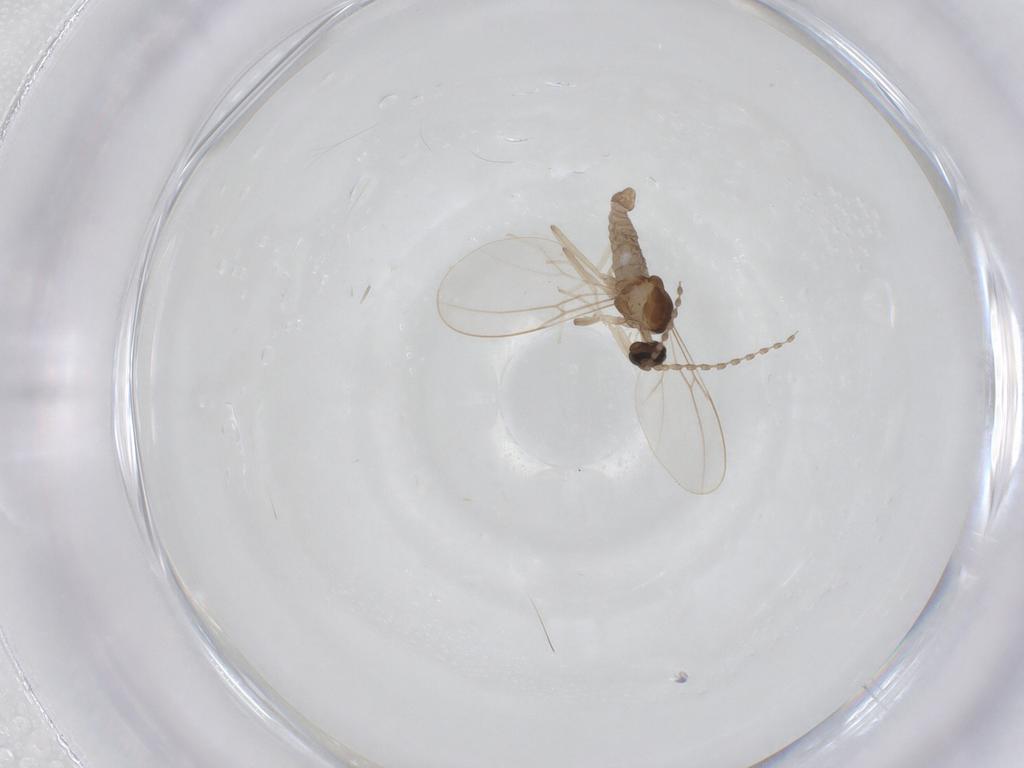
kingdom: Animalia
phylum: Arthropoda
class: Insecta
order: Diptera
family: Cecidomyiidae
